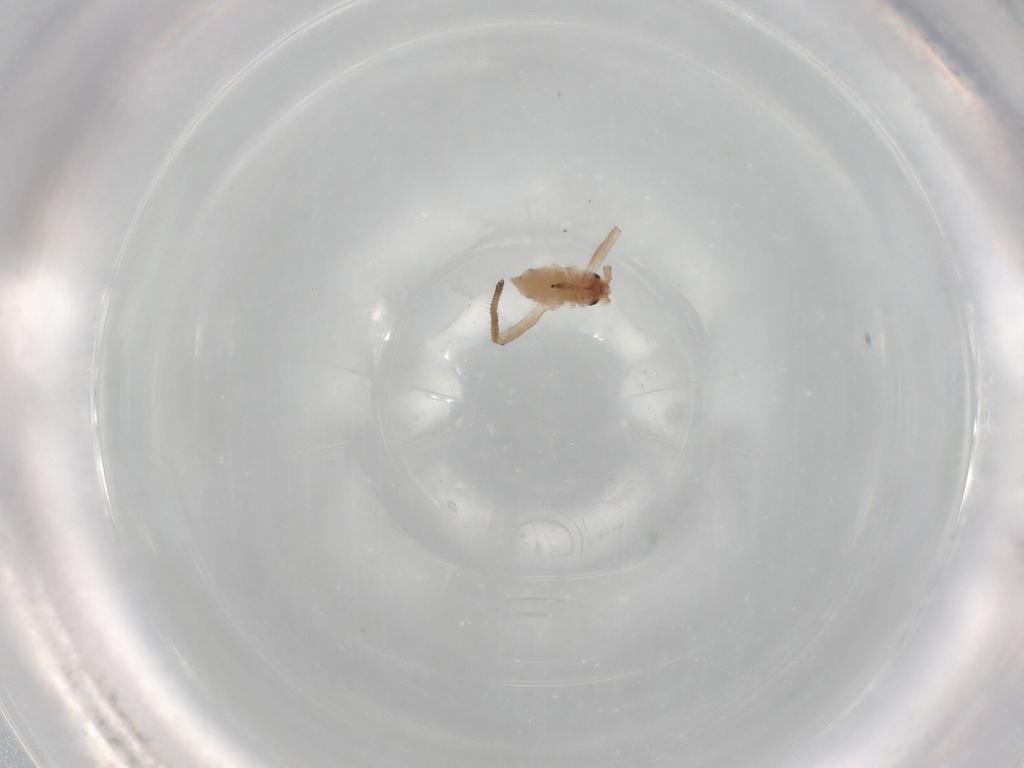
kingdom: Animalia
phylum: Arthropoda
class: Insecta
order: Hemiptera
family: Aphididae
